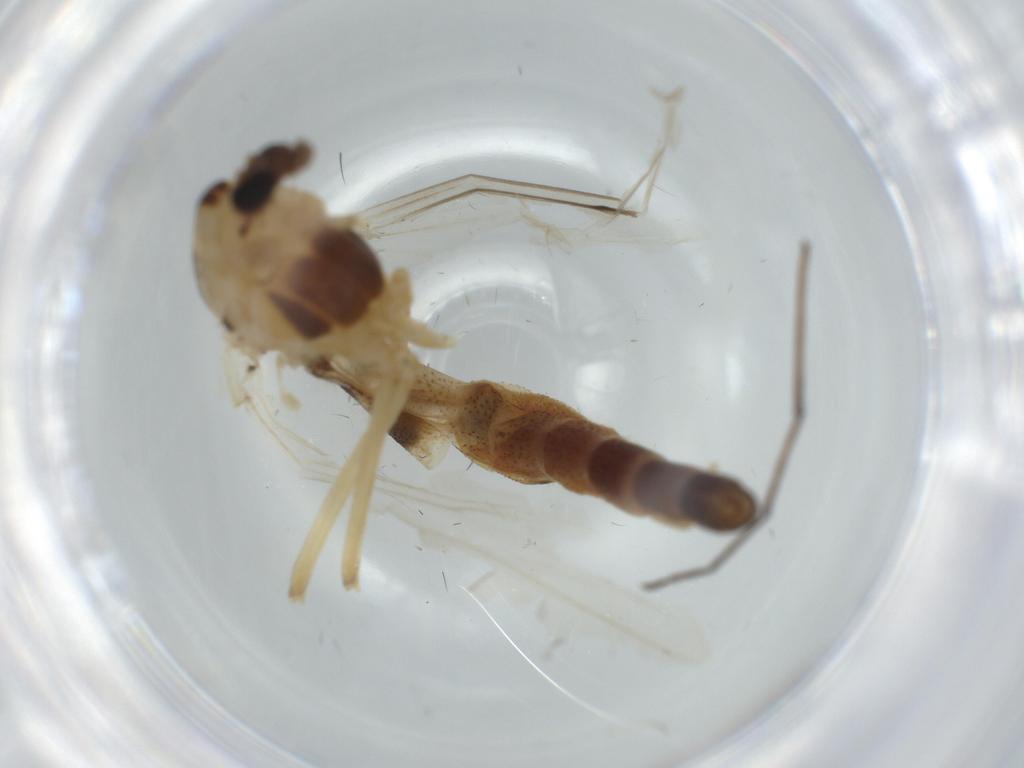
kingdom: Animalia
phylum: Arthropoda
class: Insecta
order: Diptera
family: Chironomidae
